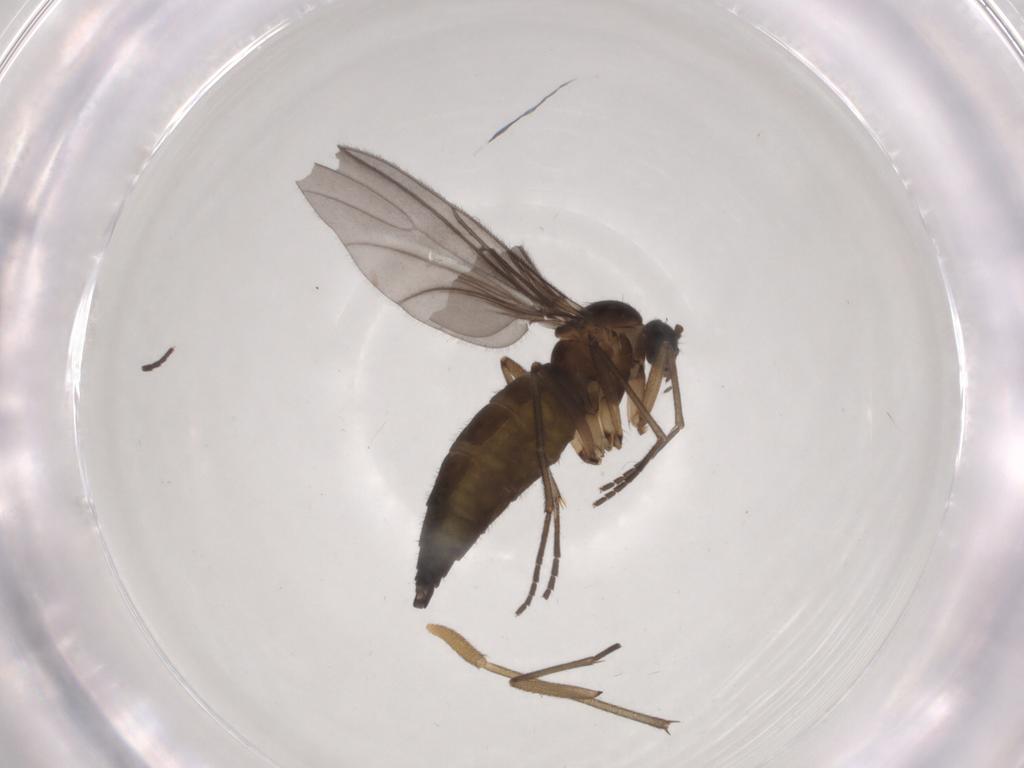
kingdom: Animalia
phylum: Arthropoda
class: Insecta
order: Diptera
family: Sciaridae
